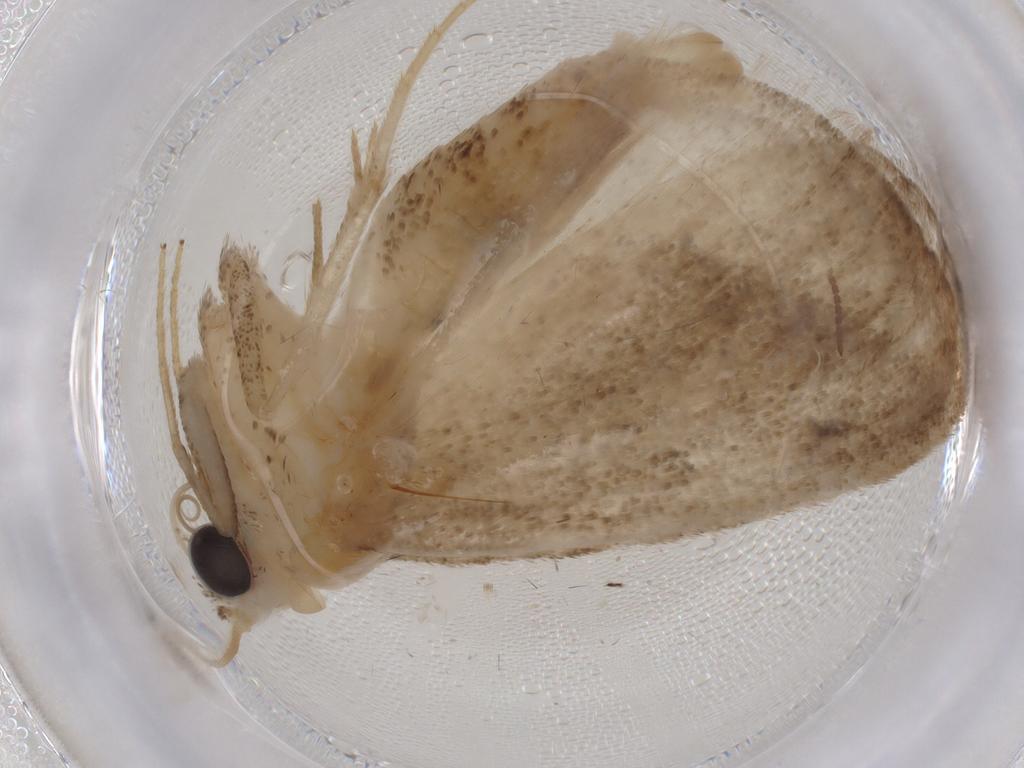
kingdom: Animalia
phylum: Arthropoda
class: Insecta
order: Lepidoptera
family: Nolidae
